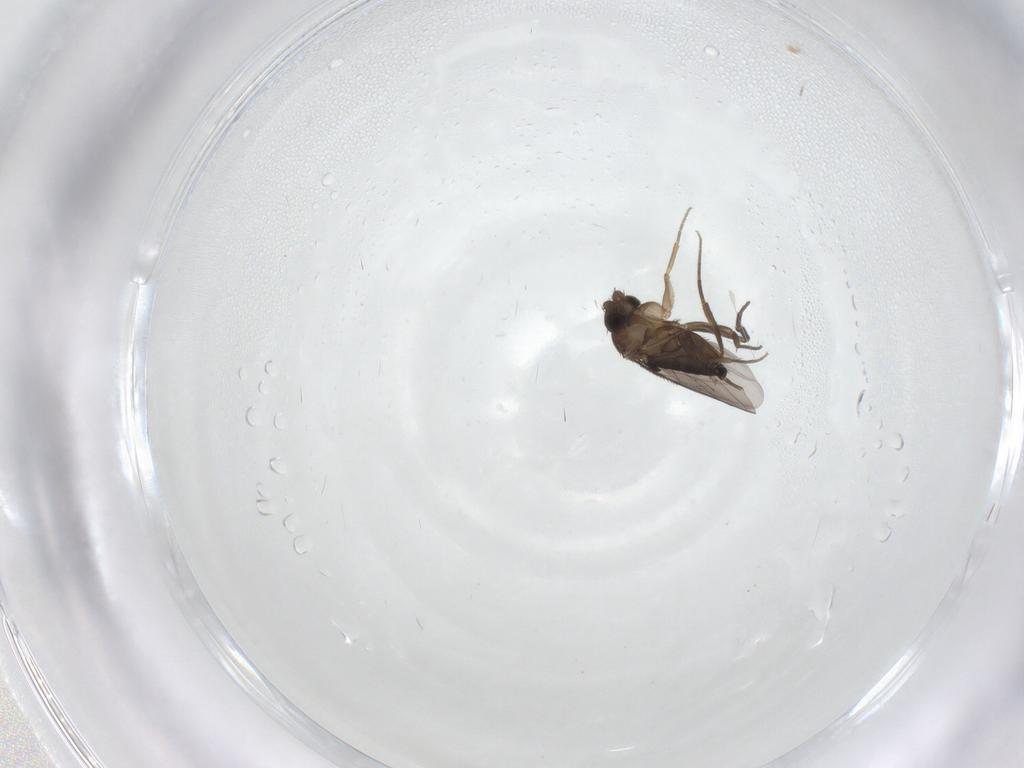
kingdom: Animalia
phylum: Arthropoda
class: Insecta
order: Diptera
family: Phoridae
